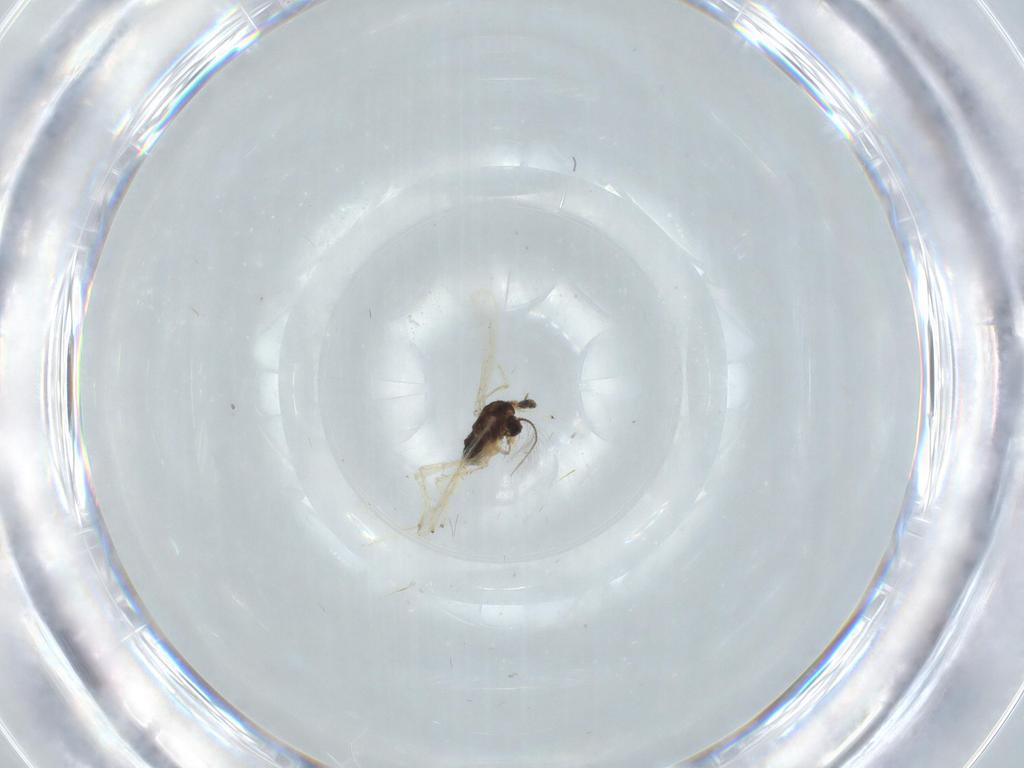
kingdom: Animalia
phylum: Arthropoda
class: Insecta
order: Diptera
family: Chironomidae
